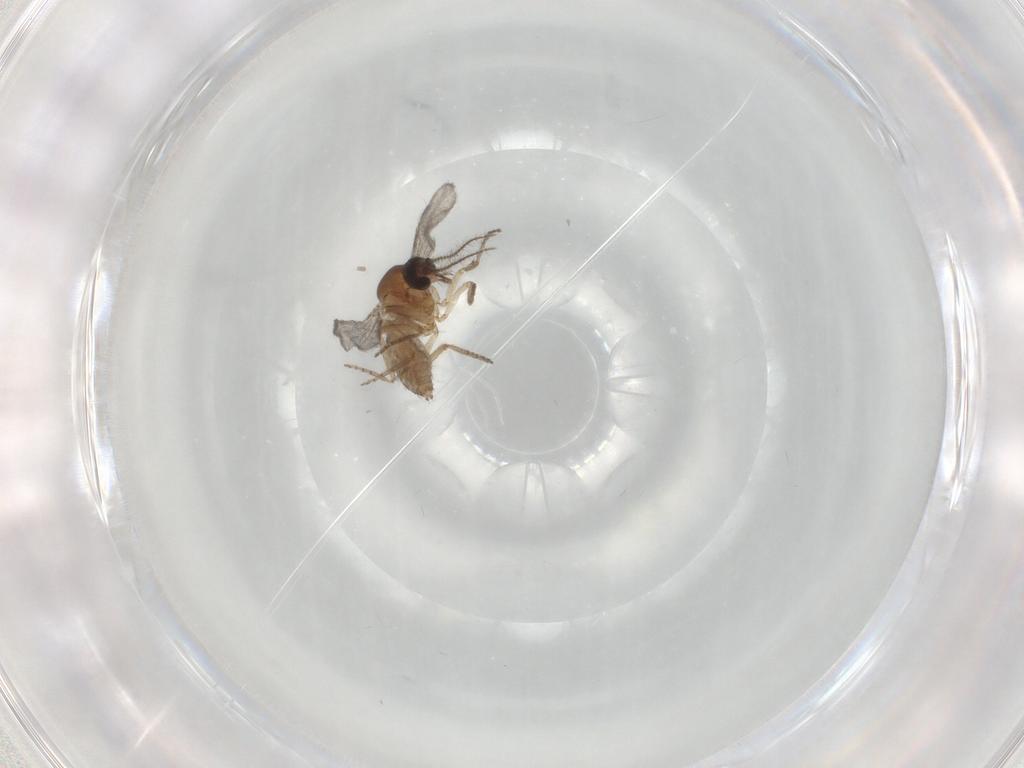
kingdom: Animalia
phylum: Arthropoda
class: Insecta
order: Diptera
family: Ceratopogonidae
